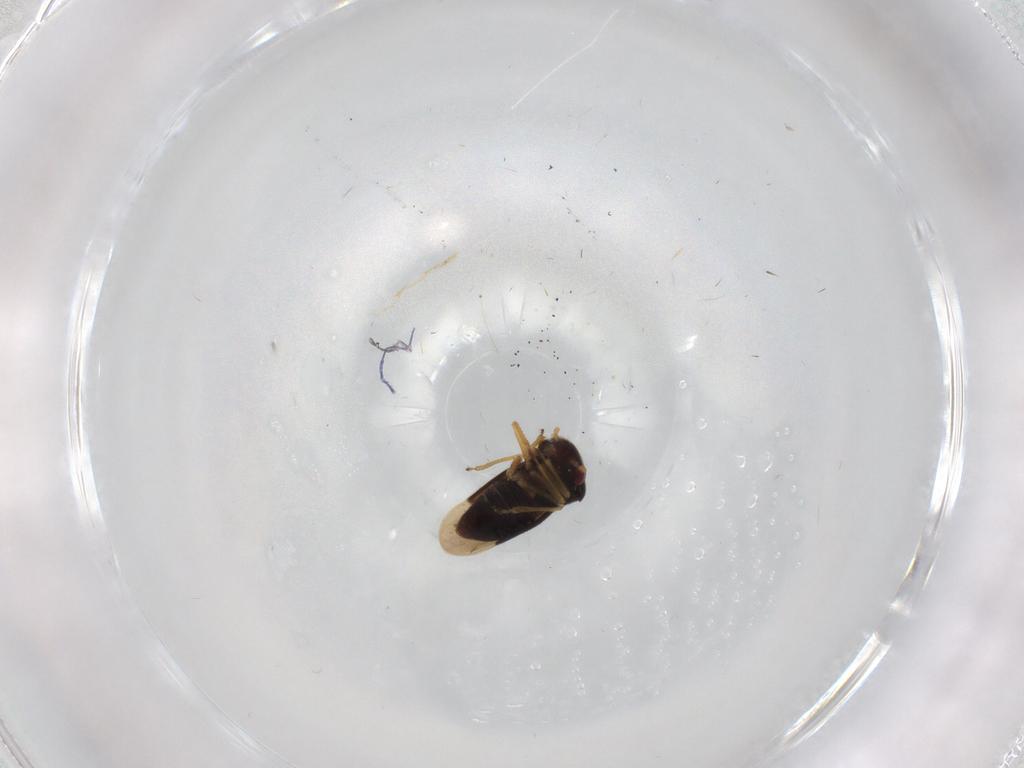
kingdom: Animalia
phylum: Arthropoda
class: Insecta
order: Hemiptera
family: Schizopteridae
